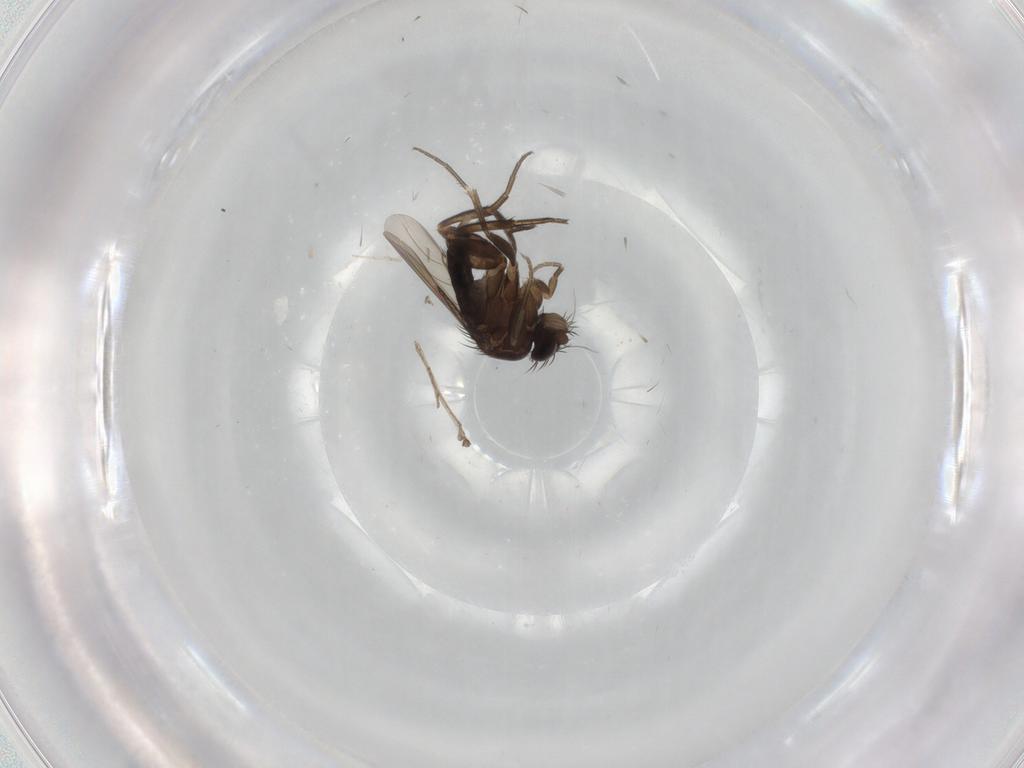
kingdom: Animalia
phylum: Arthropoda
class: Insecta
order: Diptera
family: Phoridae
